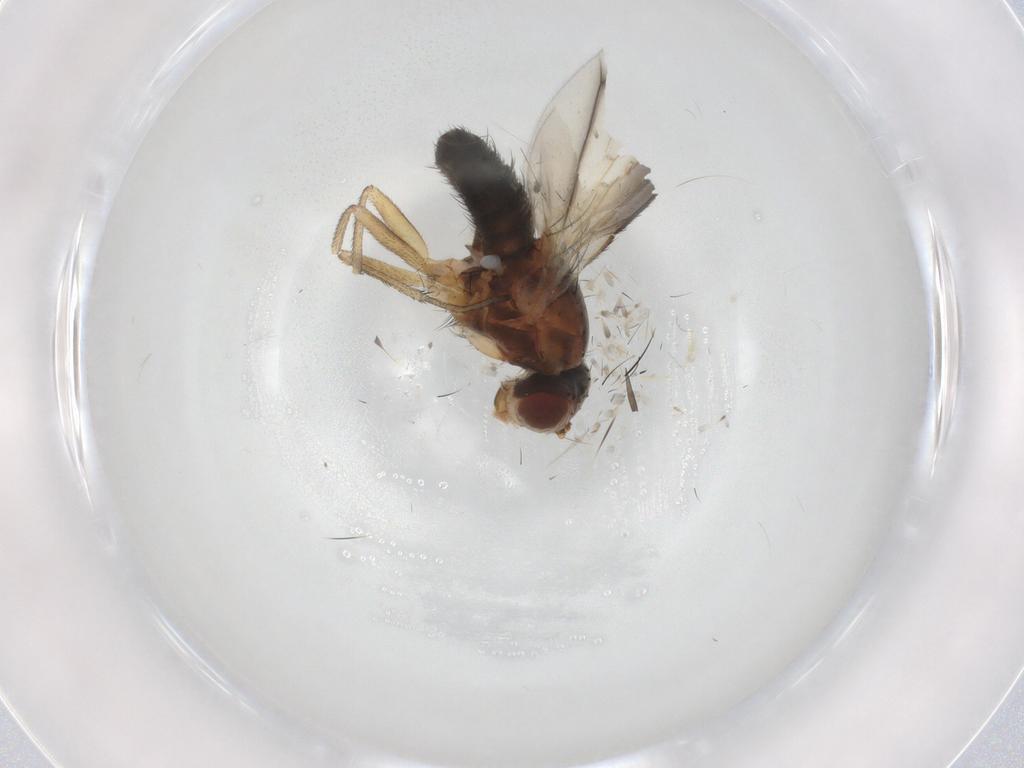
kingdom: Animalia
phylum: Arthropoda
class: Insecta
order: Diptera
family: Heleomyzidae
